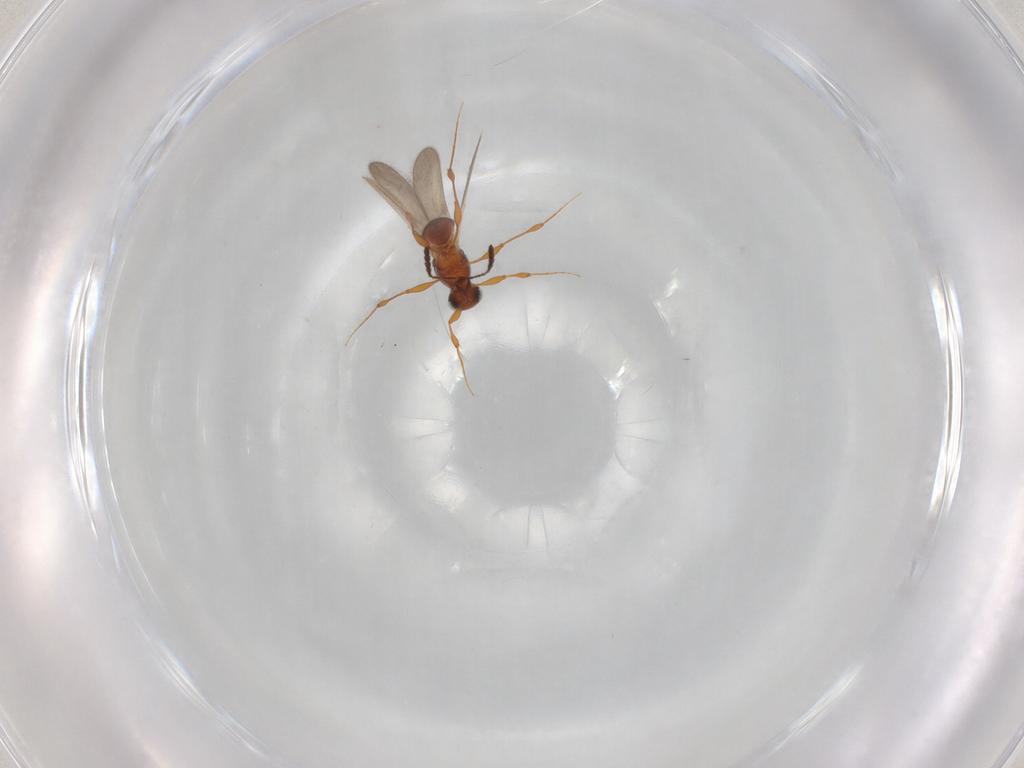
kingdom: Animalia
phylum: Arthropoda
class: Insecta
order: Hymenoptera
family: Platygastridae
